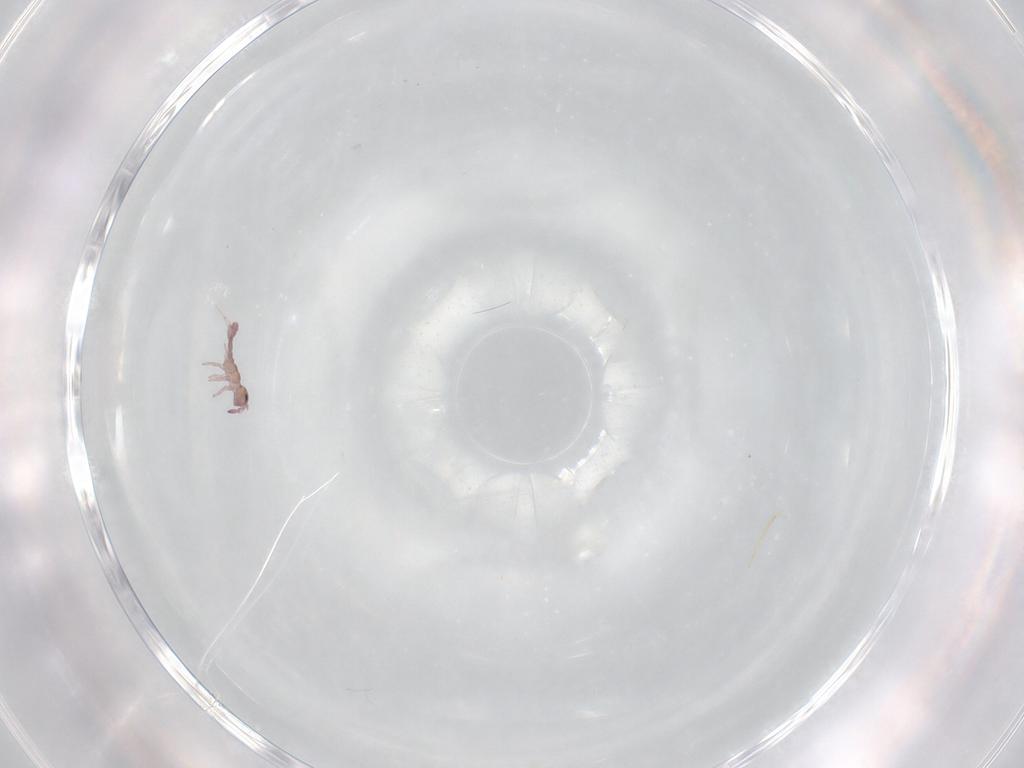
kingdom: Animalia
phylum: Arthropoda
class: Collembola
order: Entomobryomorpha
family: Isotomidae
